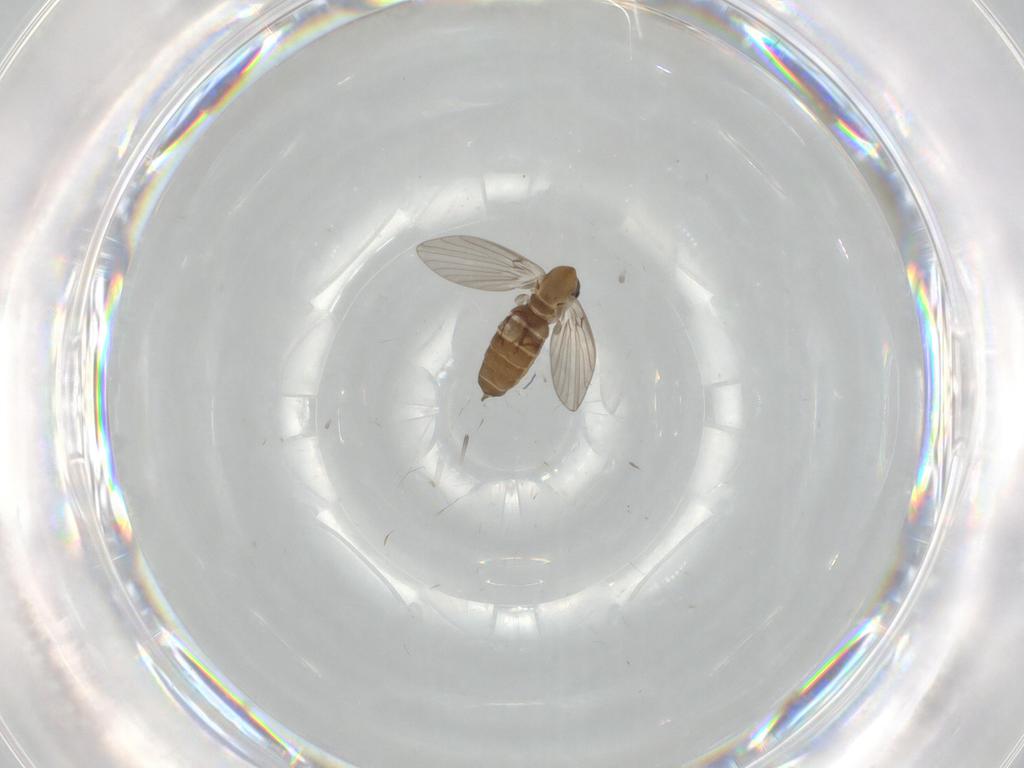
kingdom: Animalia
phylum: Arthropoda
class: Insecta
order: Diptera
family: Psychodidae
